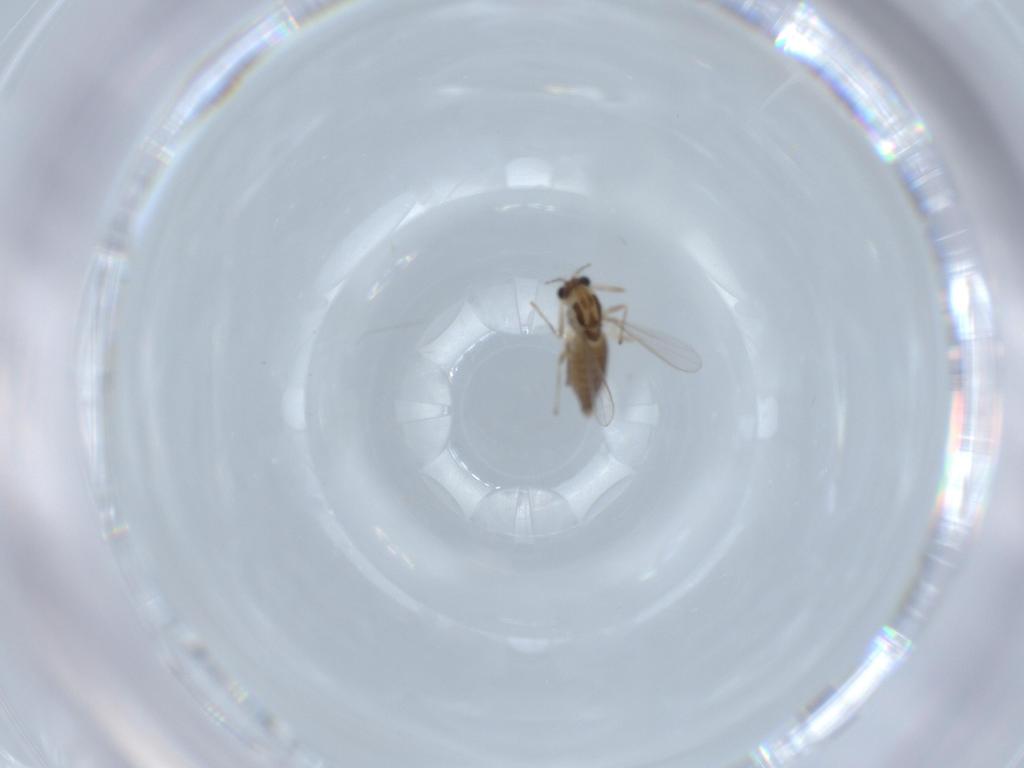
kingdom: Animalia
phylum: Arthropoda
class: Insecta
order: Diptera
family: Chironomidae
